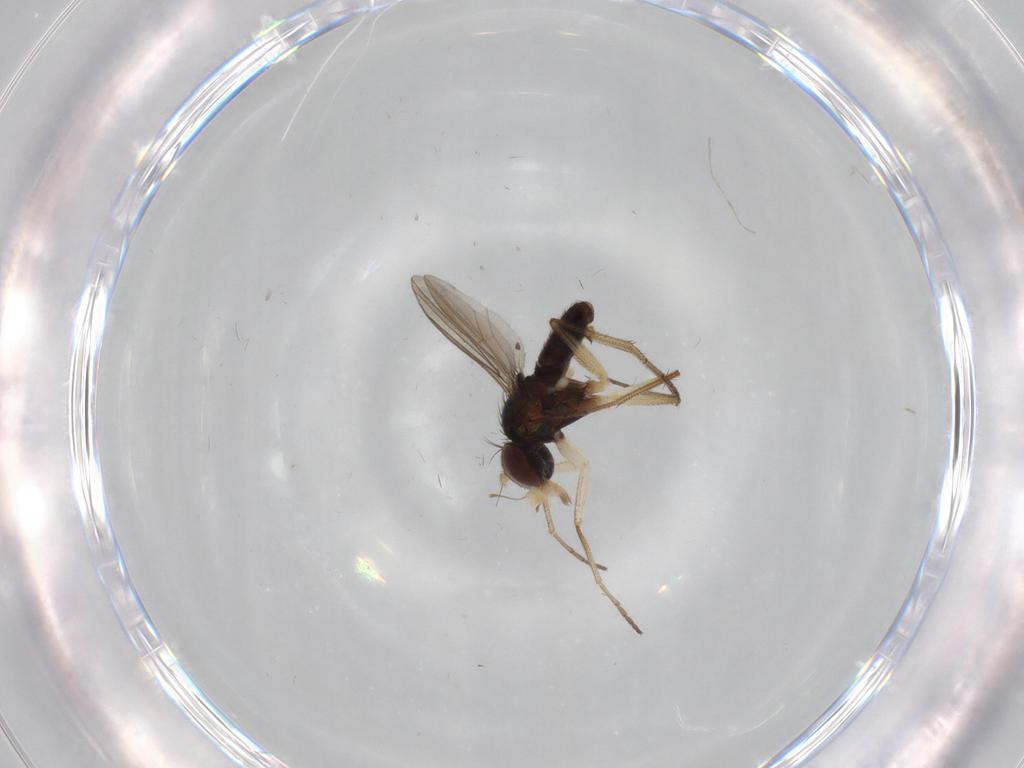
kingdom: Animalia
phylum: Arthropoda
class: Insecta
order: Diptera
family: Dolichopodidae
